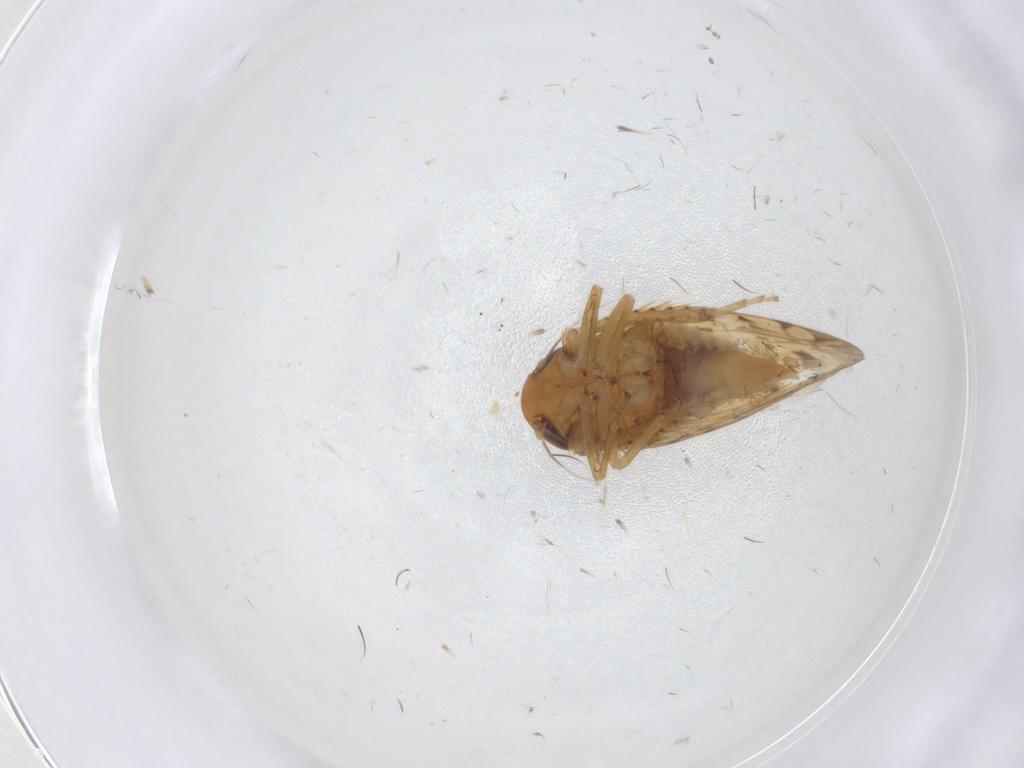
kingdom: Animalia
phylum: Arthropoda
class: Insecta
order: Hemiptera
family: Cicadellidae
